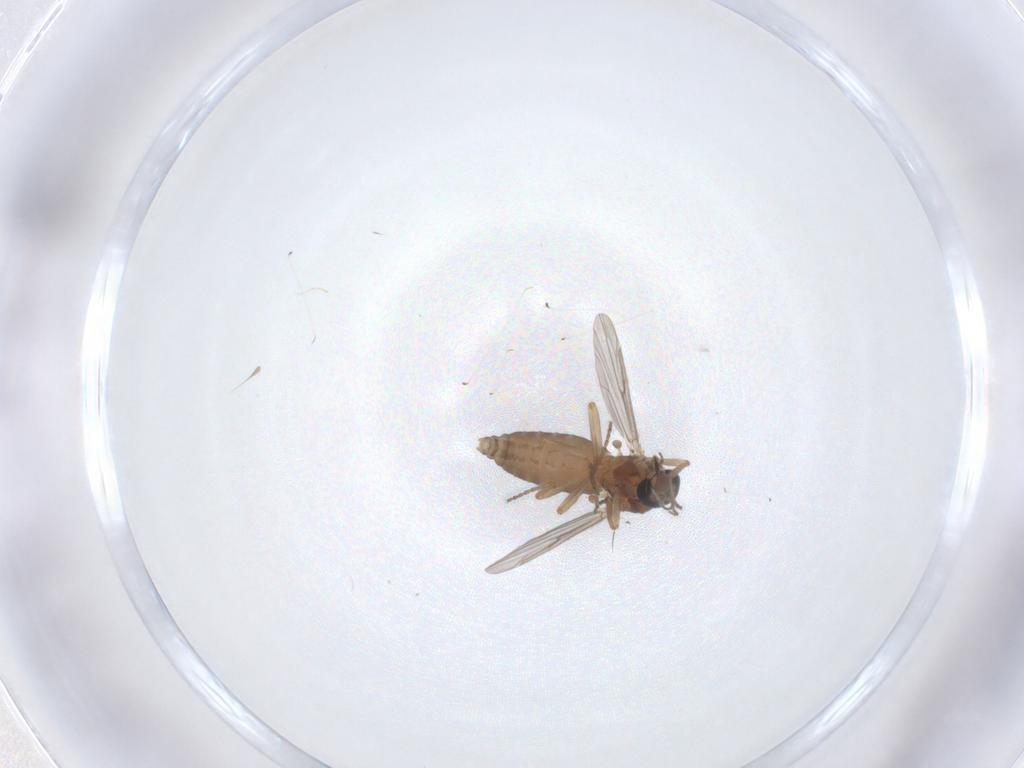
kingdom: Animalia
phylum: Arthropoda
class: Insecta
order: Diptera
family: Ceratopogonidae
